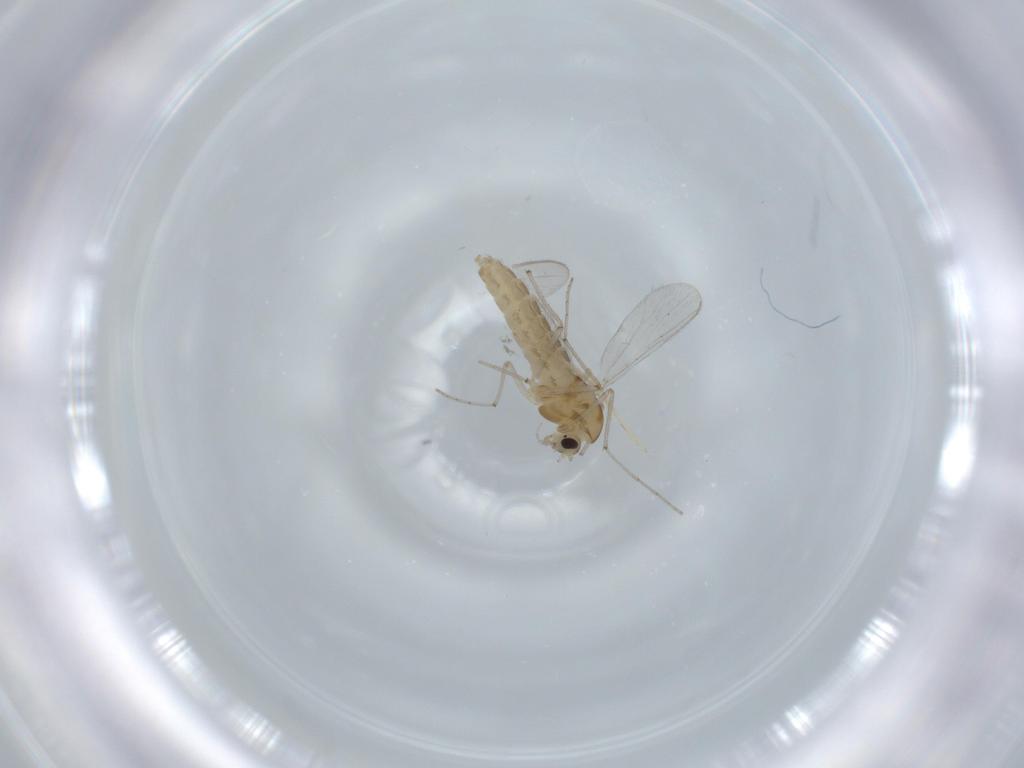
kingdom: Animalia
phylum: Arthropoda
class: Insecta
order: Diptera
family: Chironomidae
